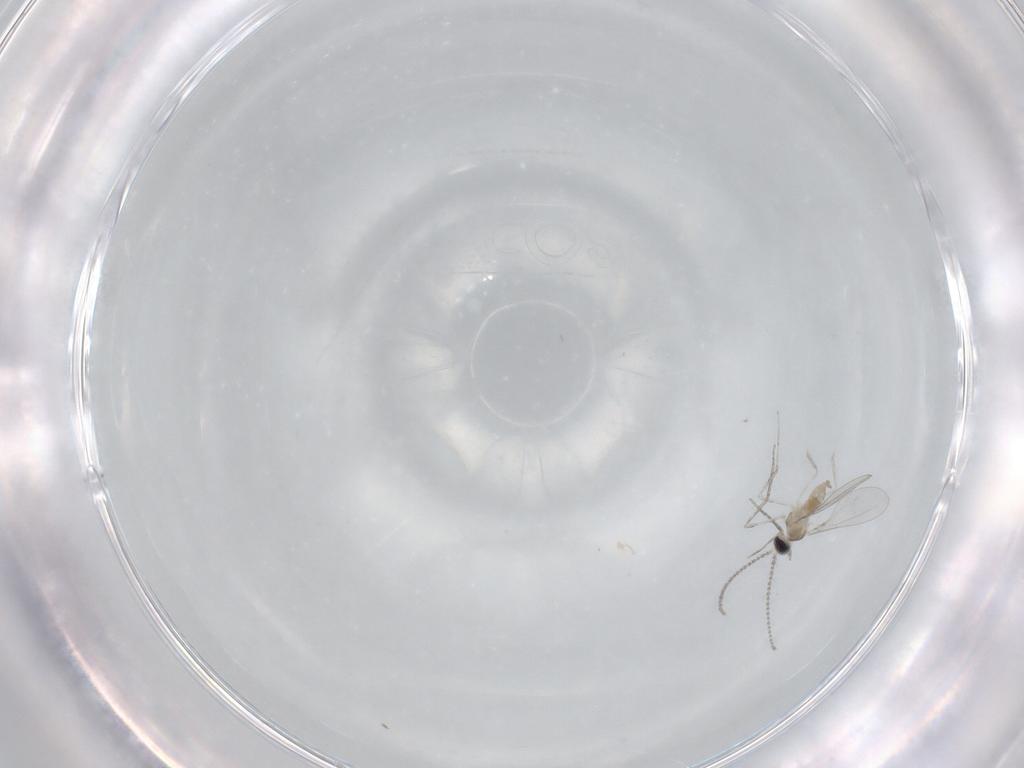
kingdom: Animalia
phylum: Arthropoda
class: Insecta
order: Diptera
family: Cecidomyiidae
